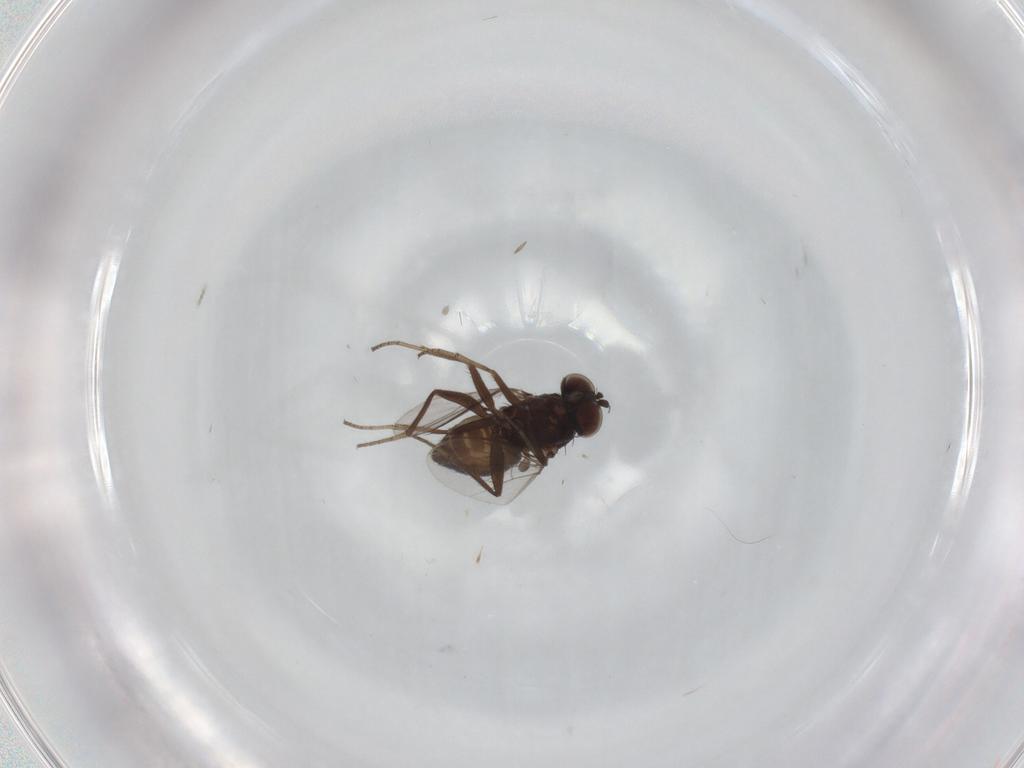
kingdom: Animalia
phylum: Arthropoda
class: Insecta
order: Diptera
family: Dolichopodidae
